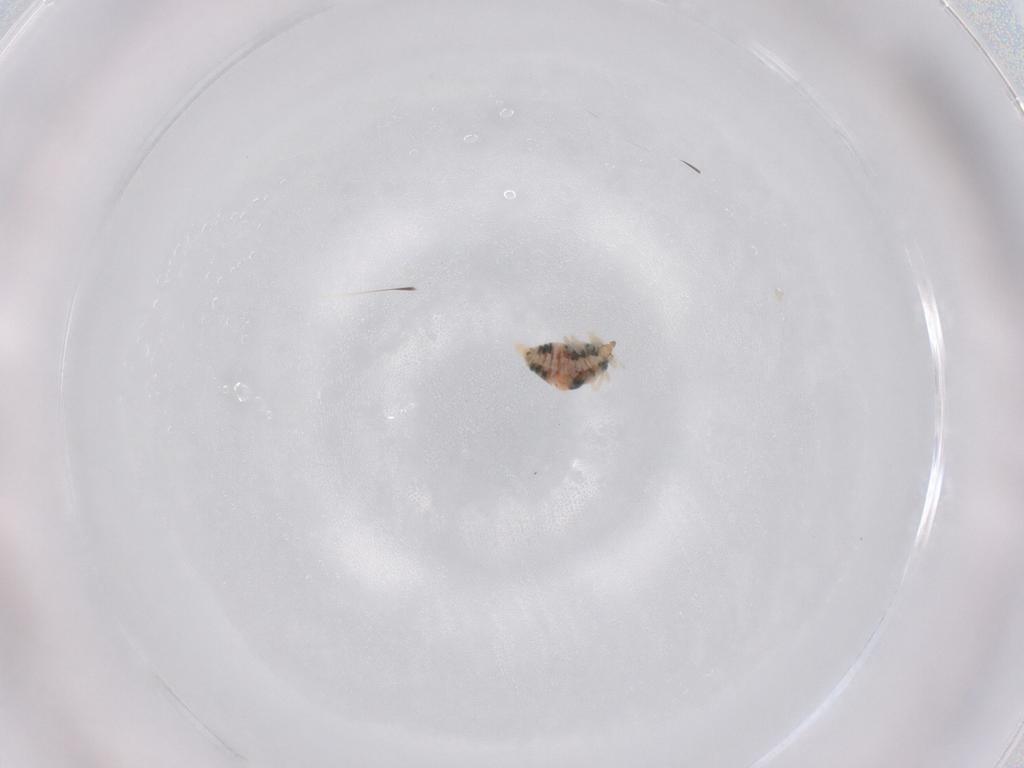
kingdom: Animalia
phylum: Arthropoda
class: Insecta
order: Neuroptera
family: Coniopterygidae
